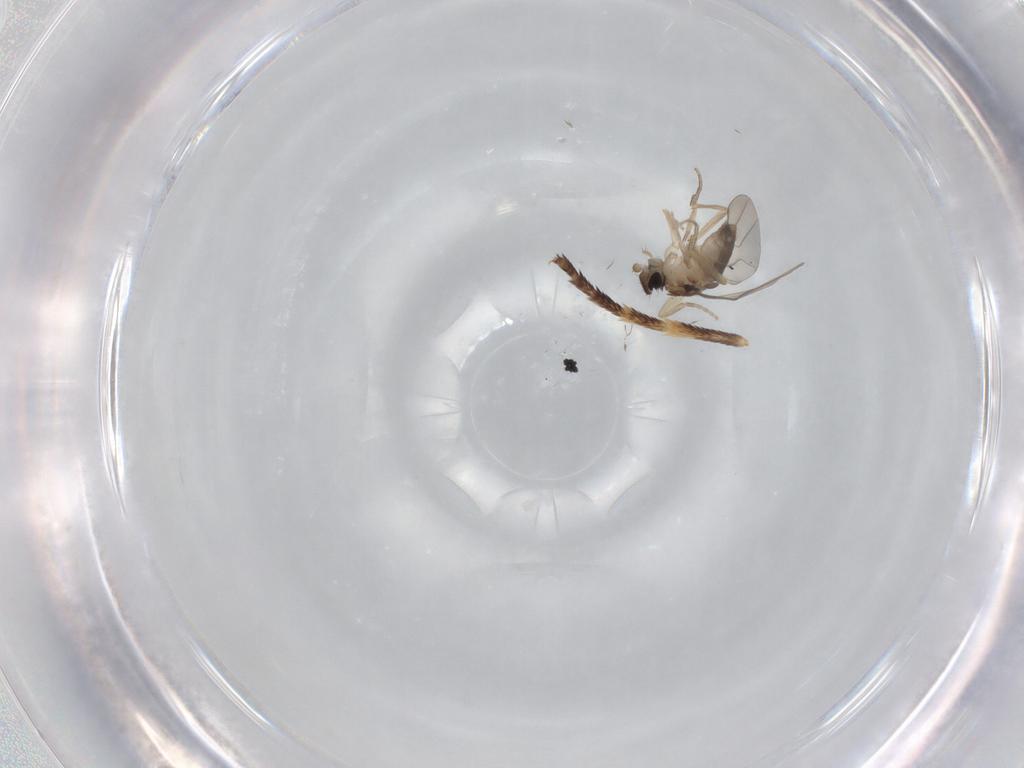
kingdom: Animalia
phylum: Arthropoda
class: Insecta
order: Diptera
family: Phoridae
